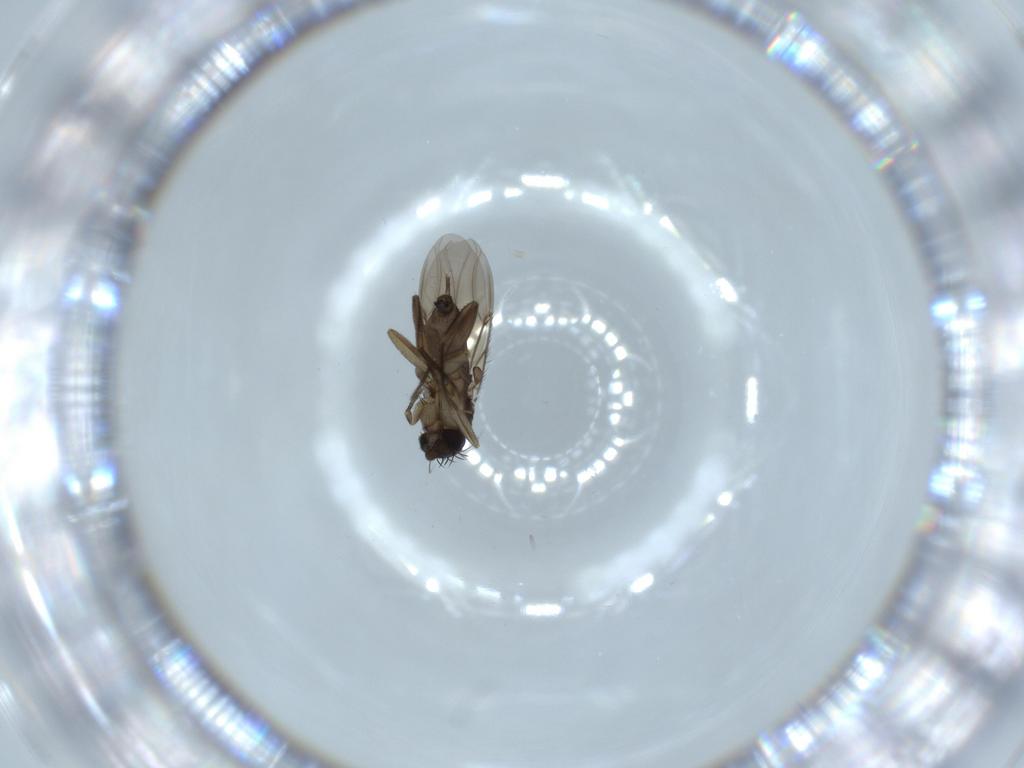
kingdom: Animalia
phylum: Arthropoda
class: Insecta
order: Diptera
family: Phoridae
